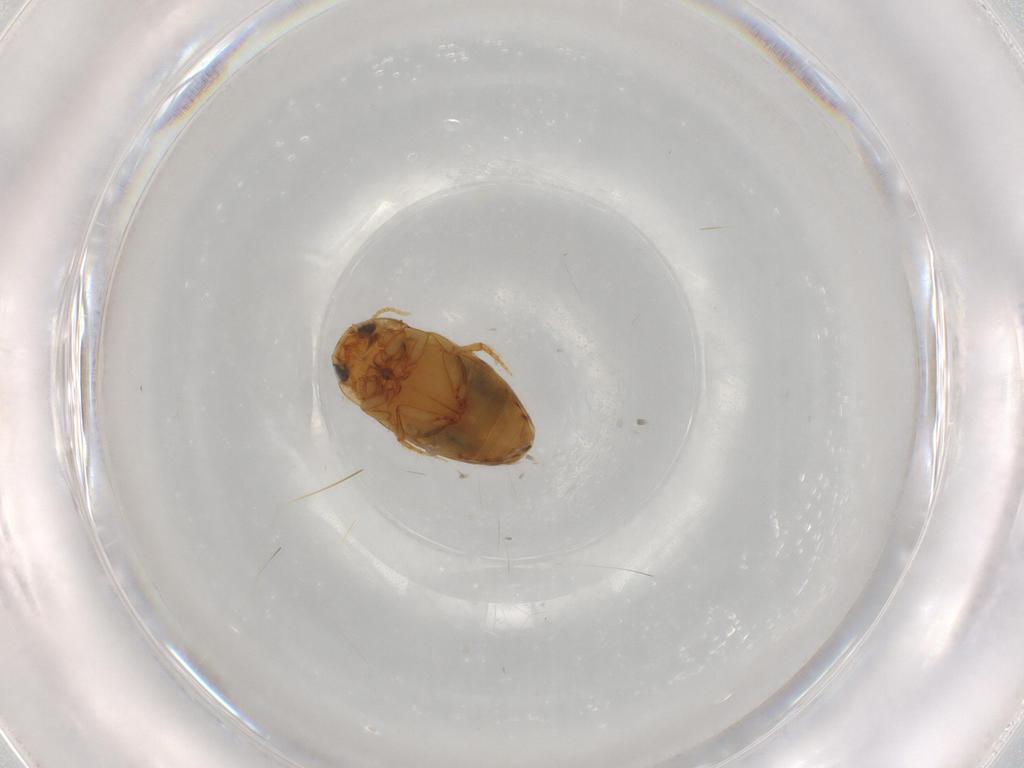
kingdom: Animalia
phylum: Arthropoda
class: Insecta
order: Coleoptera
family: Dytiscidae
